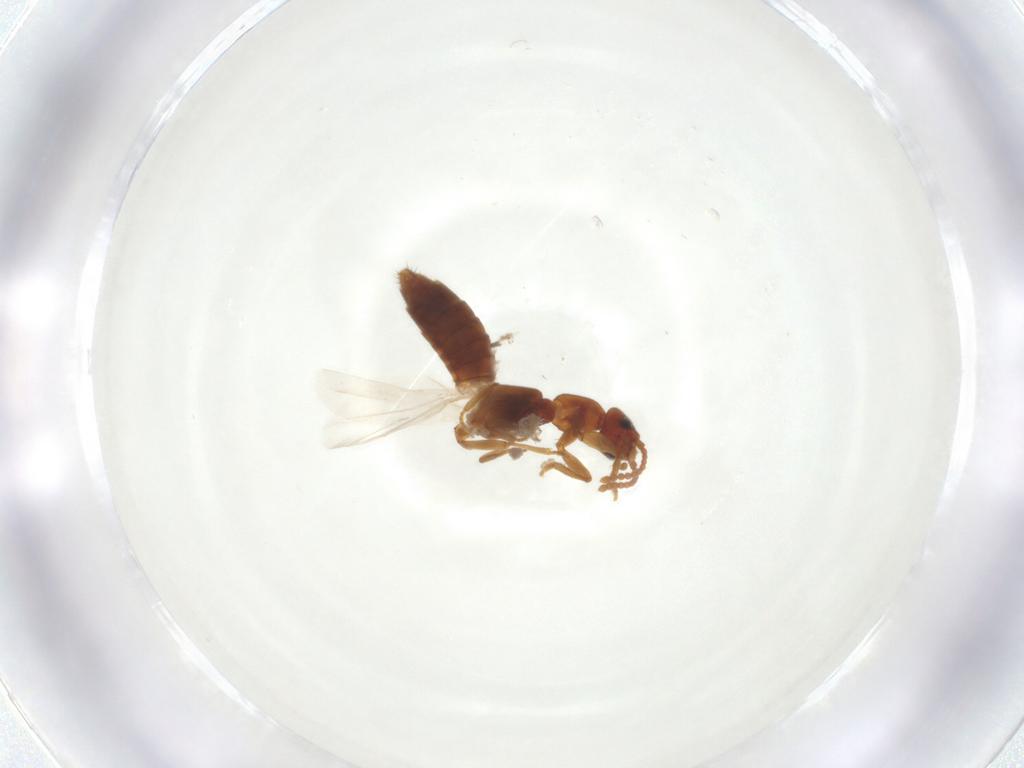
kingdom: Animalia
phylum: Arthropoda
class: Insecta
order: Coleoptera
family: Staphylinidae
